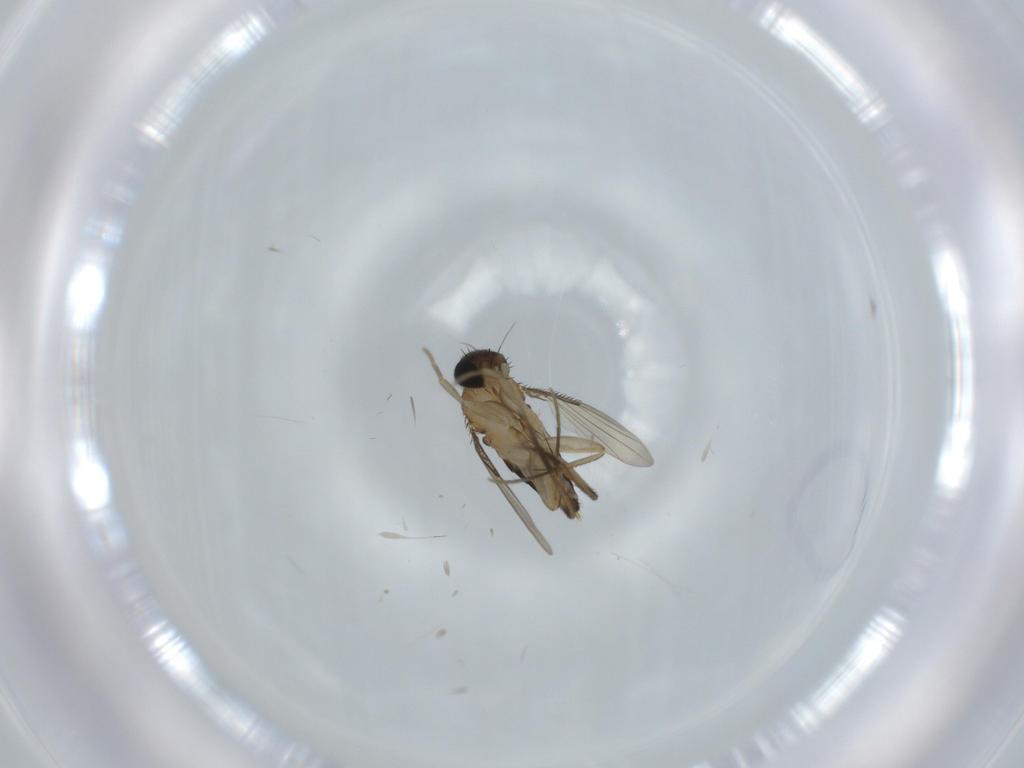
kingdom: Animalia
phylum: Arthropoda
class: Insecta
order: Diptera
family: Phoridae
